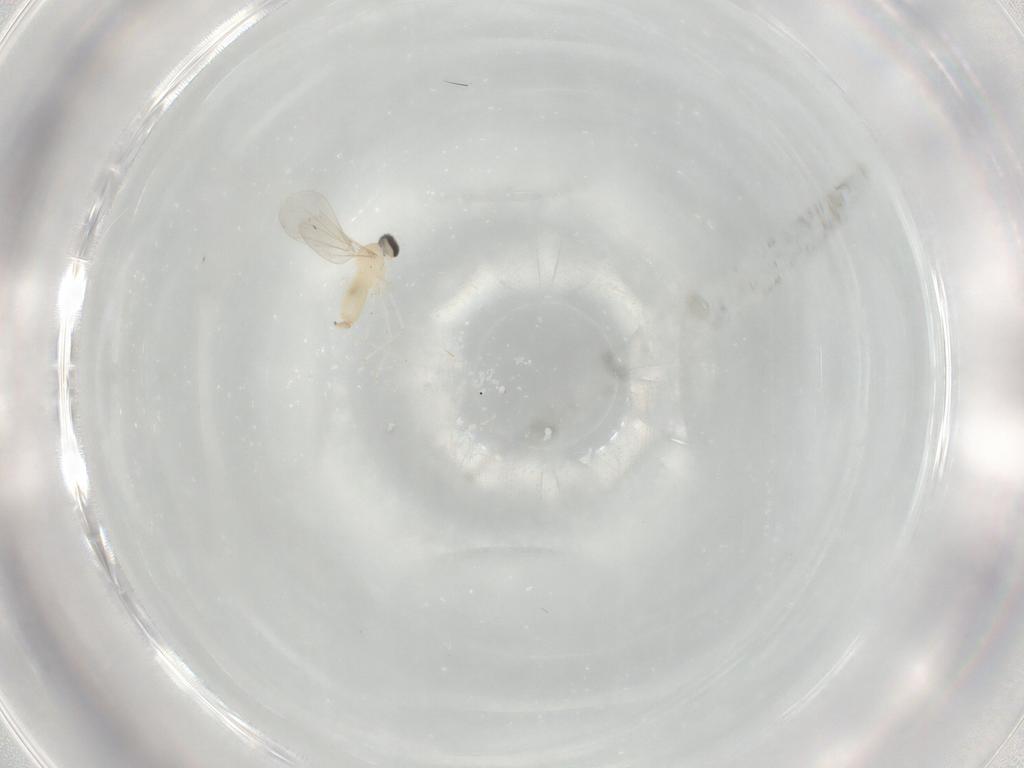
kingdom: Animalia
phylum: Arthropoda
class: Insecta
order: Diptera
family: Cecidomyiidae
